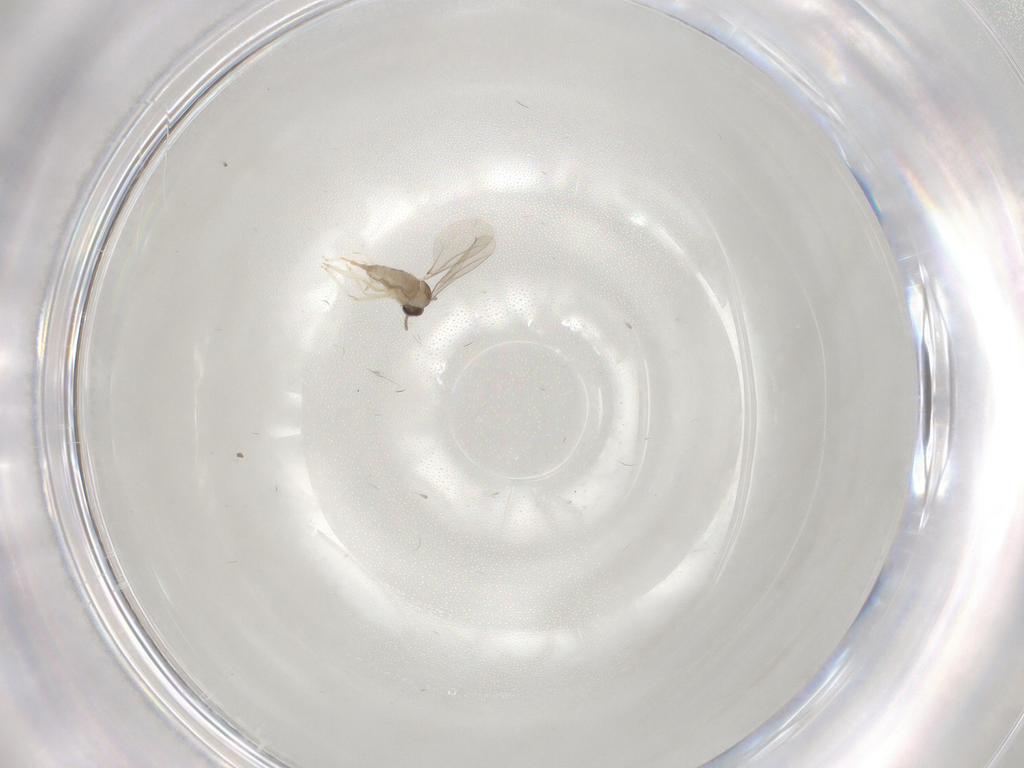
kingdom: Animalia
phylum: Arthropoda
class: Insecta
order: Diptera
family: Cecidomyiidae
